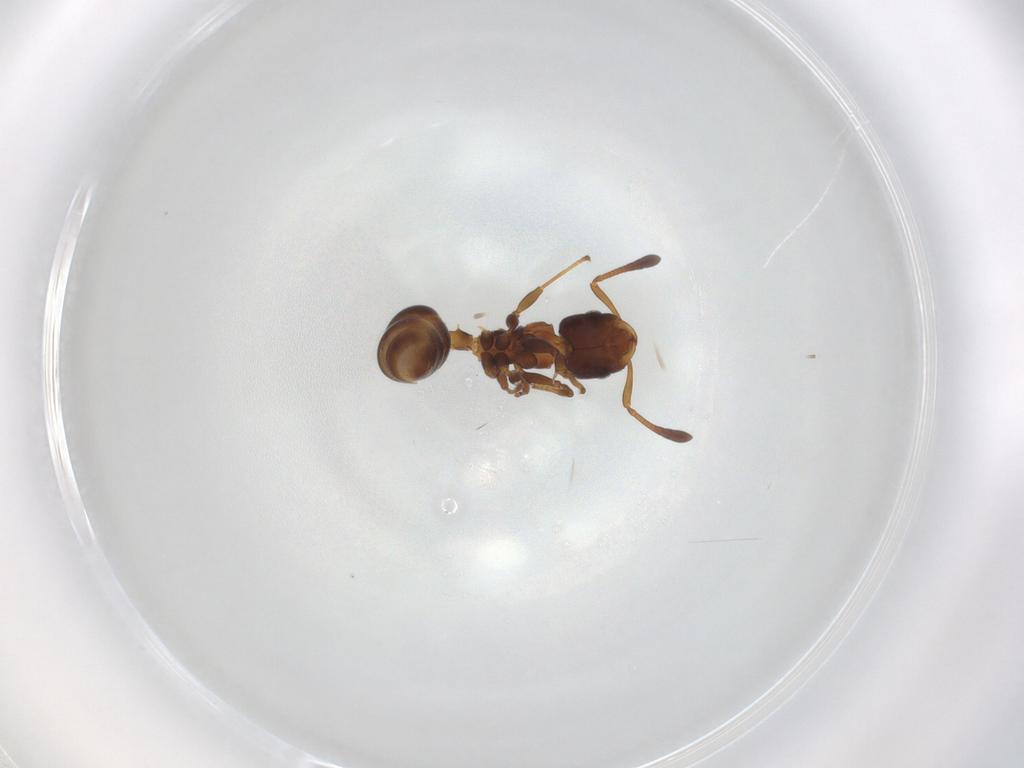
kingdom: Animalia
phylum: Arthropoda
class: Insecta
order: Hymenoptera
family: Formicidae
